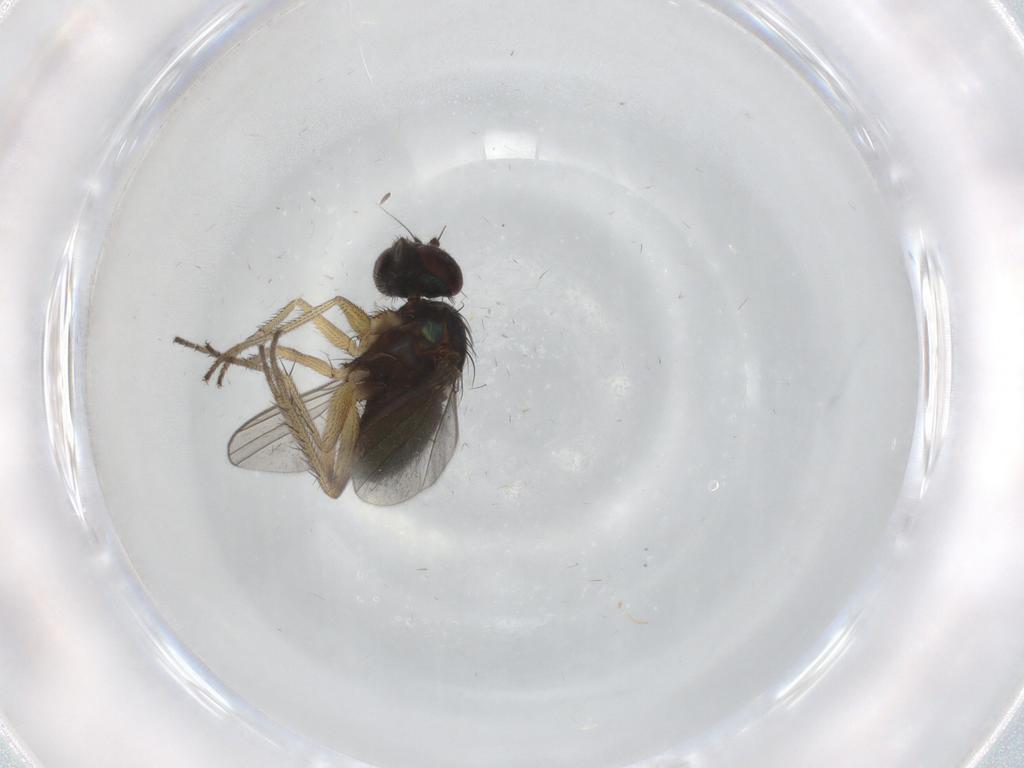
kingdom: Animalia
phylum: Arthropoda
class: Insecta
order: Diptera
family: Dolichopodidae
